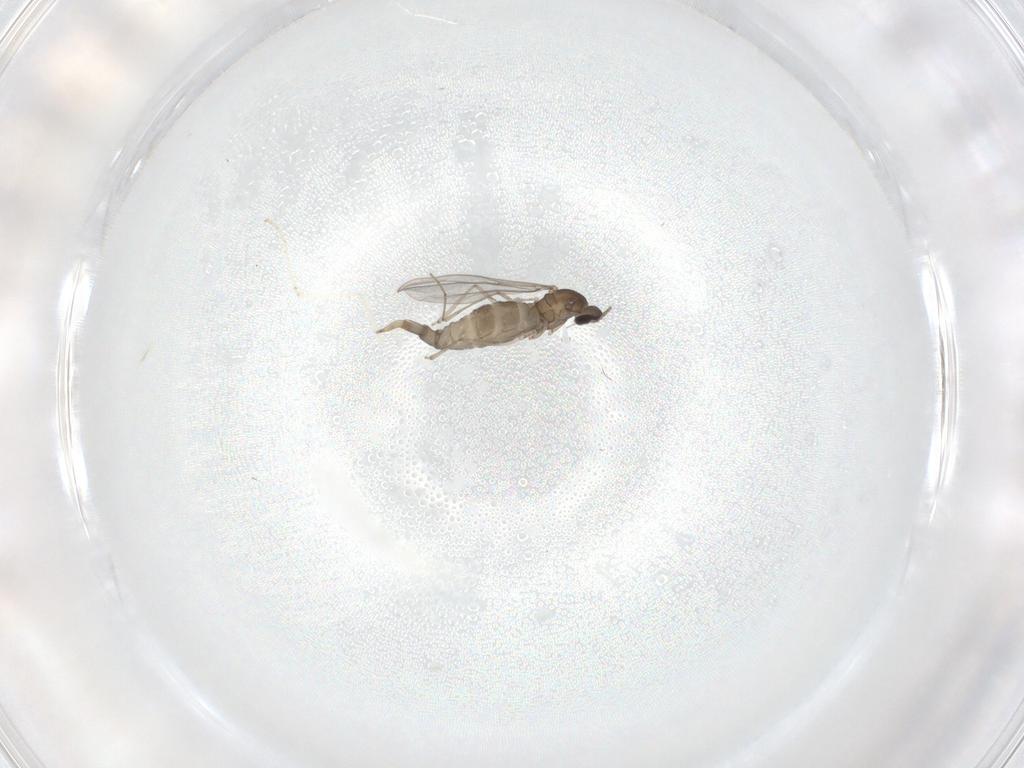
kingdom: Animalia
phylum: Arthropoda
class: Insecta
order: Diptera
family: Cecidomyiidae
